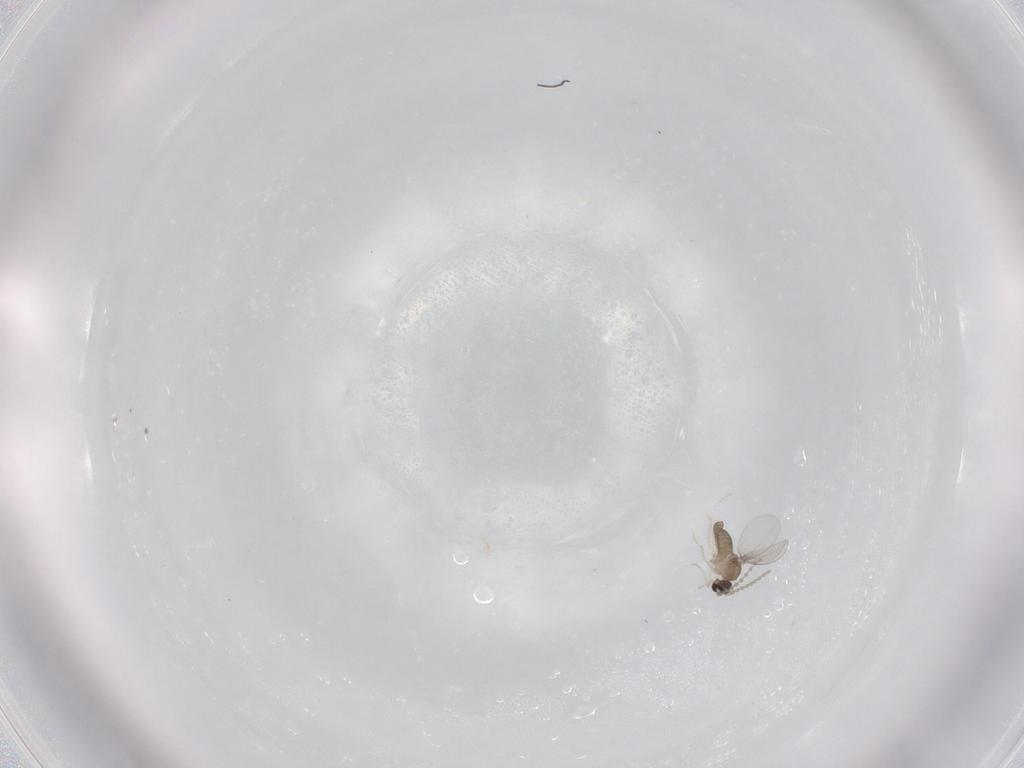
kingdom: Animalia
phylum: Arthropoda
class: Insecta
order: Diptera
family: Cecidomyiidae
